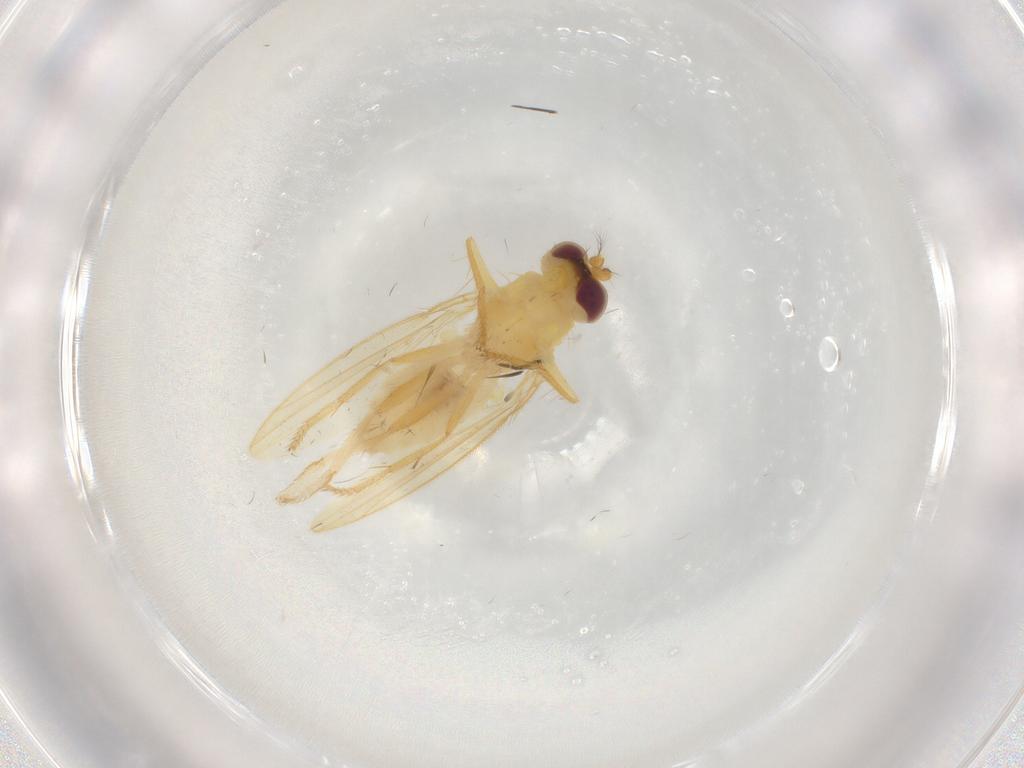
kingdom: Animalia
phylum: Arthropoda
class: Insecta
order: Diptera
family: Periscelididae
